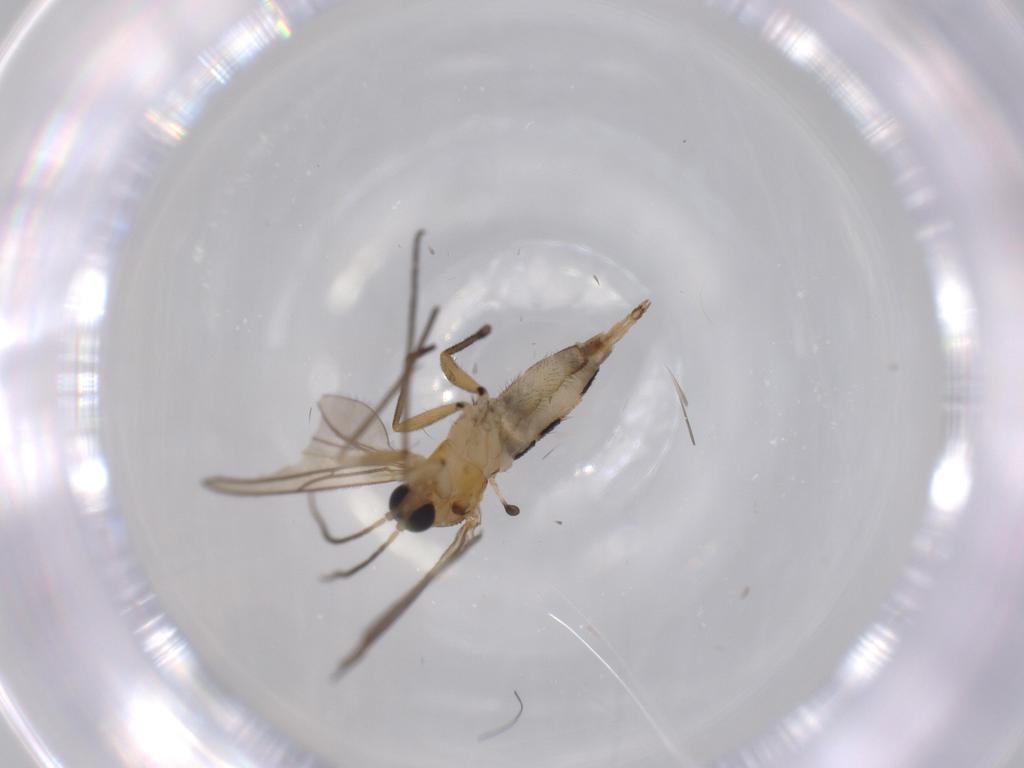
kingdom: Animalia
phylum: Arthropoda
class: Insecta
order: Diptera
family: Sciaridae
